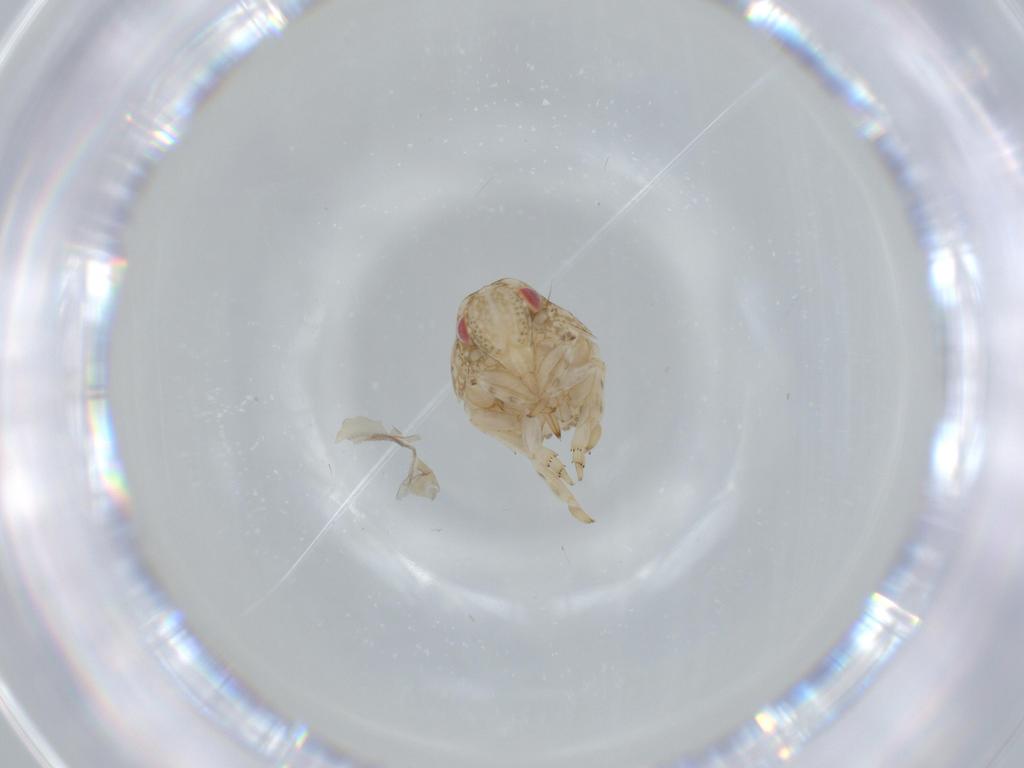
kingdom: Animalia
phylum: Arthropoda
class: Insecta
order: Hemiptera
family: Acanaloniidae
